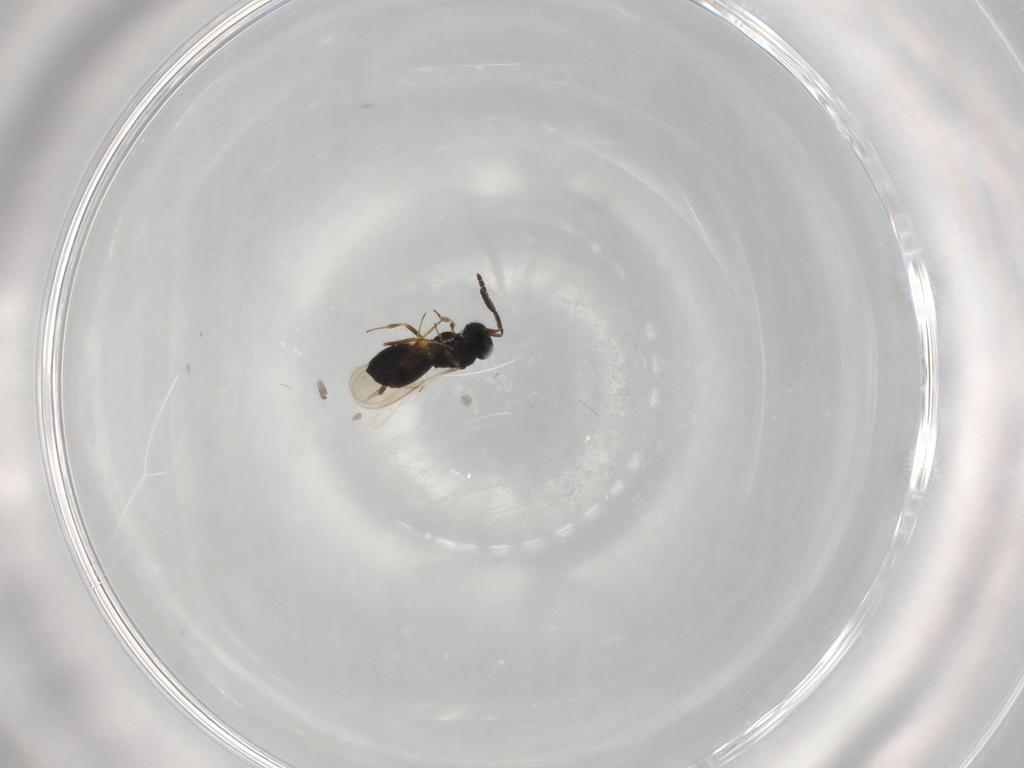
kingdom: Animalia
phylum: Arthropoda
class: Insecta
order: Hymenoptera
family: Scelionidae
